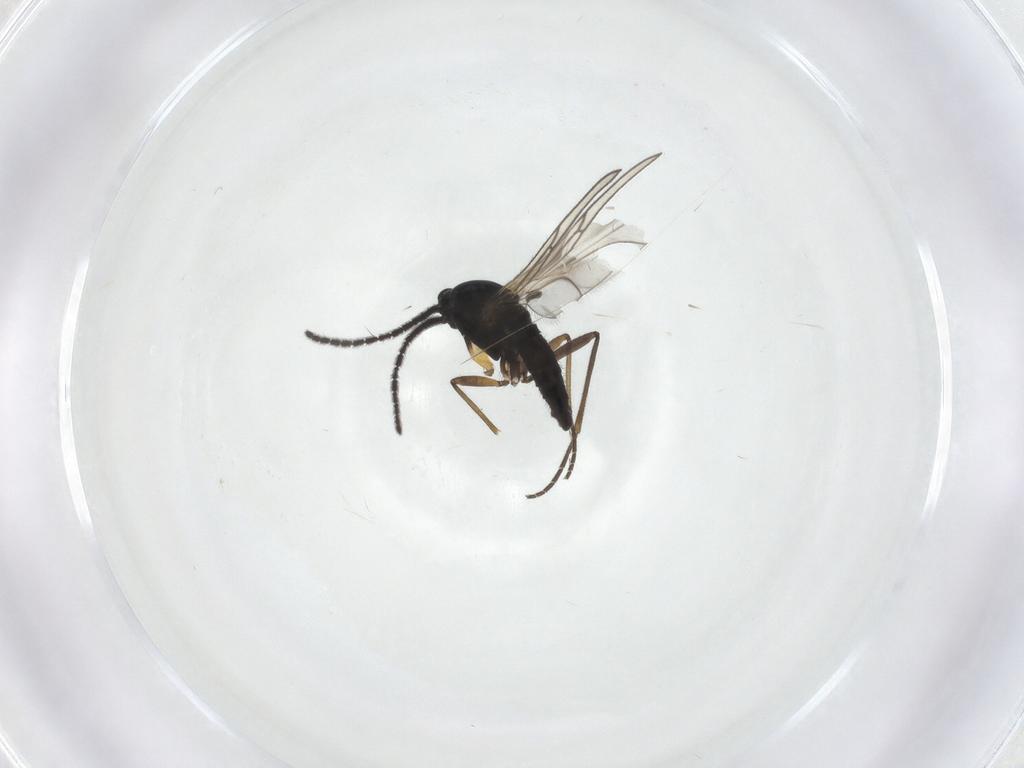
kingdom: Animalia
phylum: Arthropoda
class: Insecta
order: Diptera
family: Sciaridae
